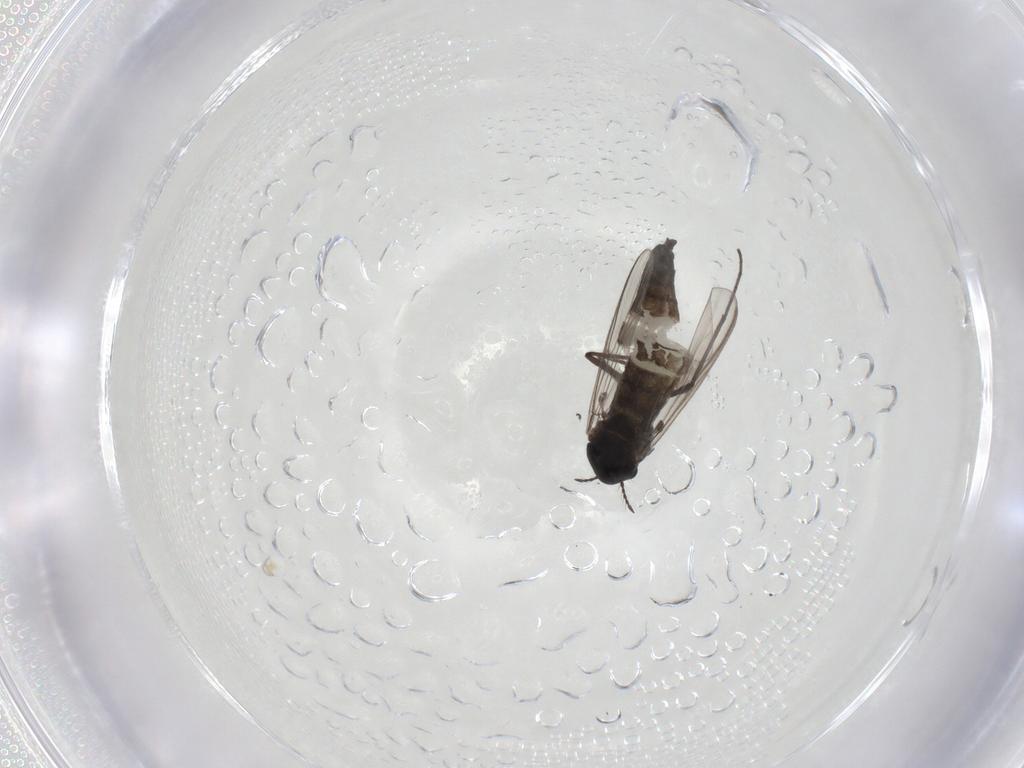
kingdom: Animalia
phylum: Arthropoda
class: Insecta
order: Diptera
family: Chironomidae
